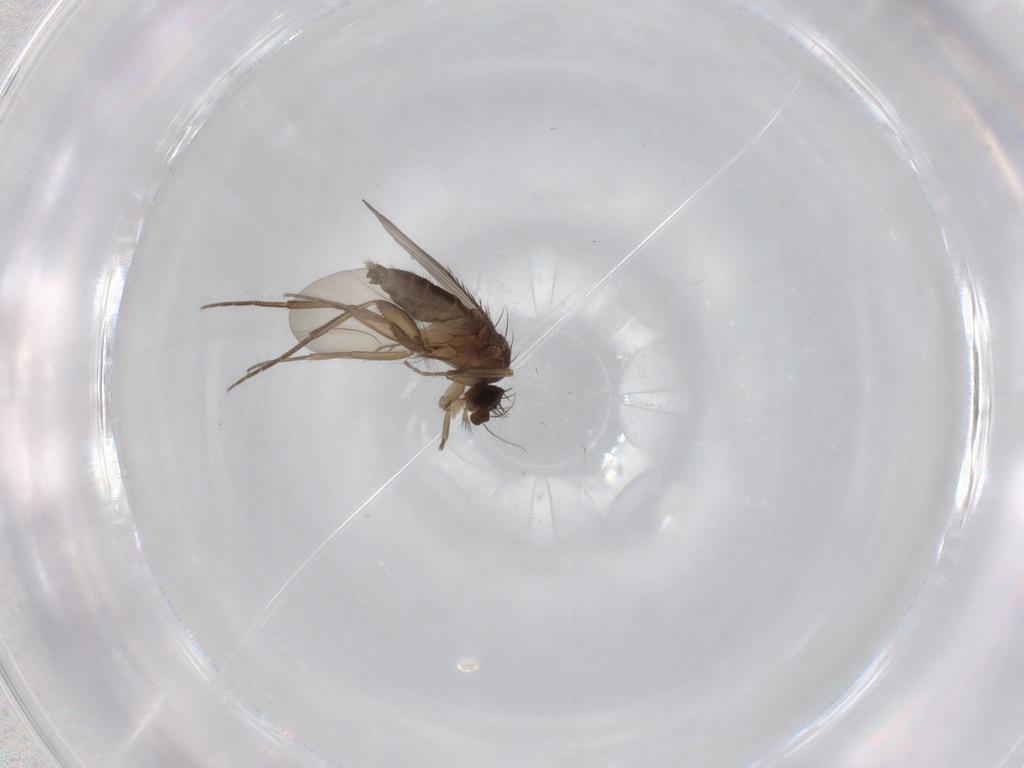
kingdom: Animalia
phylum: Arthropoda
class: Insecta
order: Diptera
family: Phoridae
